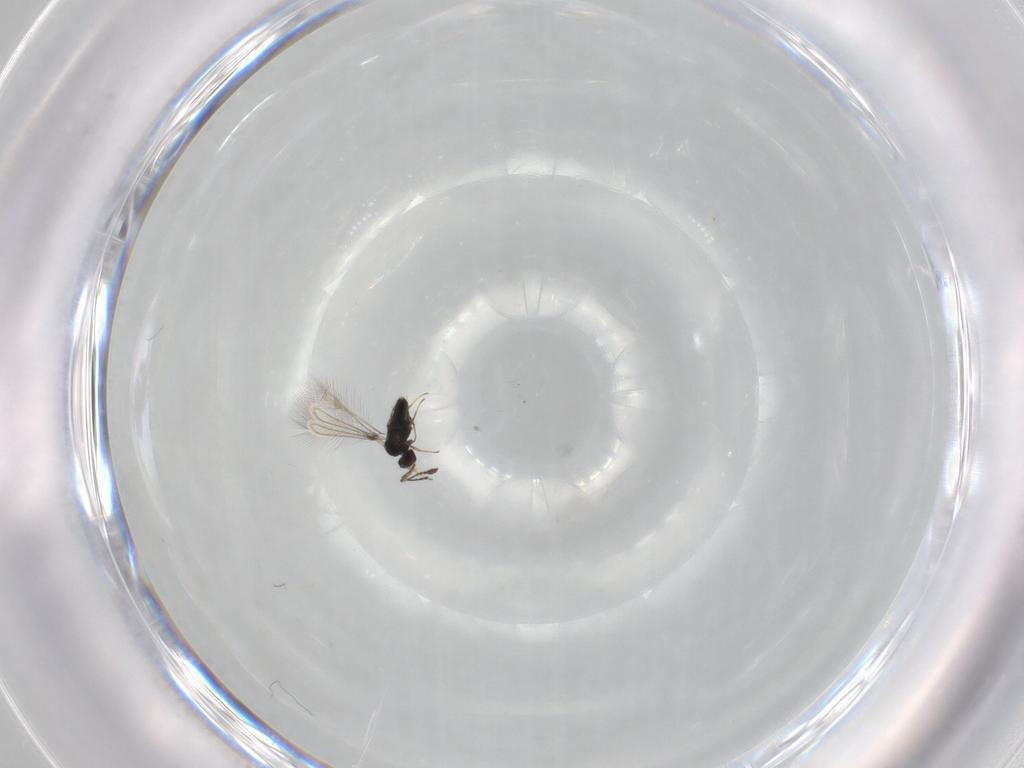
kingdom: Animalia
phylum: Arthropoda
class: Insecta
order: Hymenoptera
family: Mymaridae
